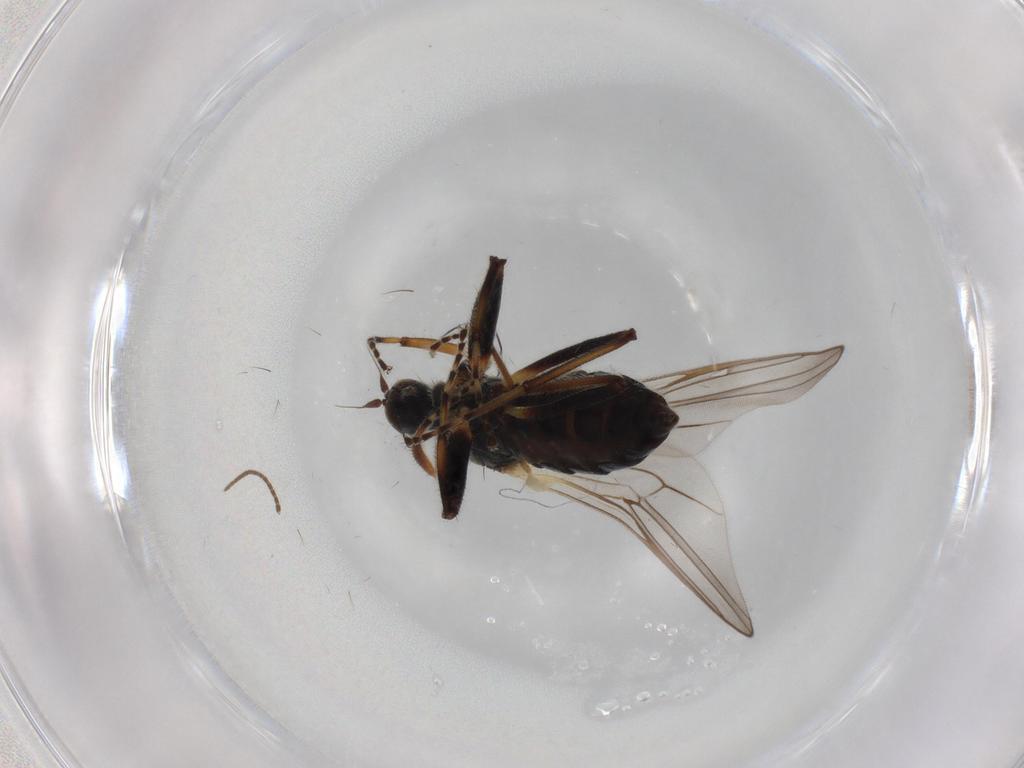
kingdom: Animalia
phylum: Arthropoda
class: Insecta
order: Diptera
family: Hybotidae
